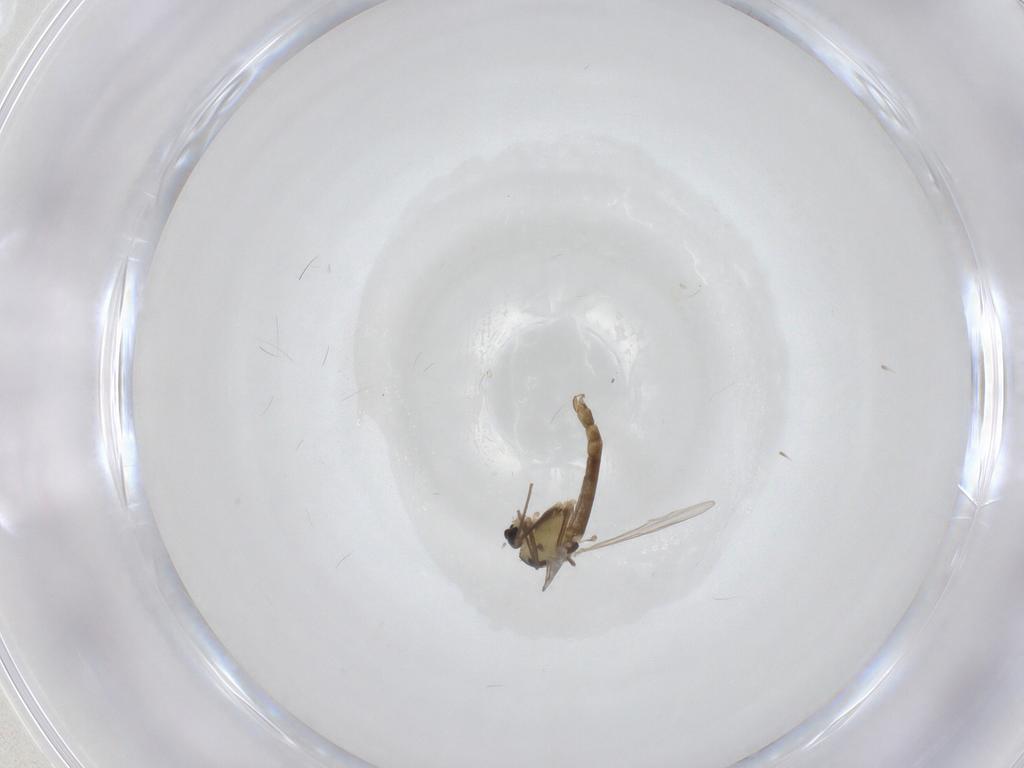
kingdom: Animalia
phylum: Arthropoda
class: Insecta
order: Diptera
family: Chironomidae
